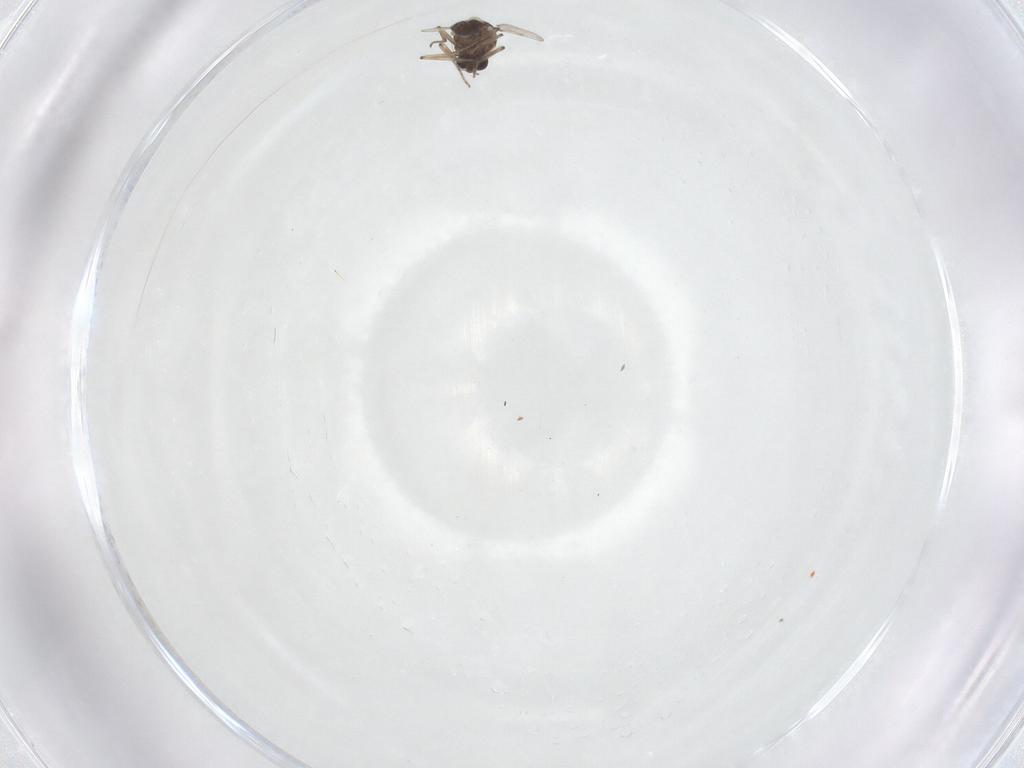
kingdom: Animalia
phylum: Arthropoda
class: Insecta
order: Diptera
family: Ceratopogonidae
